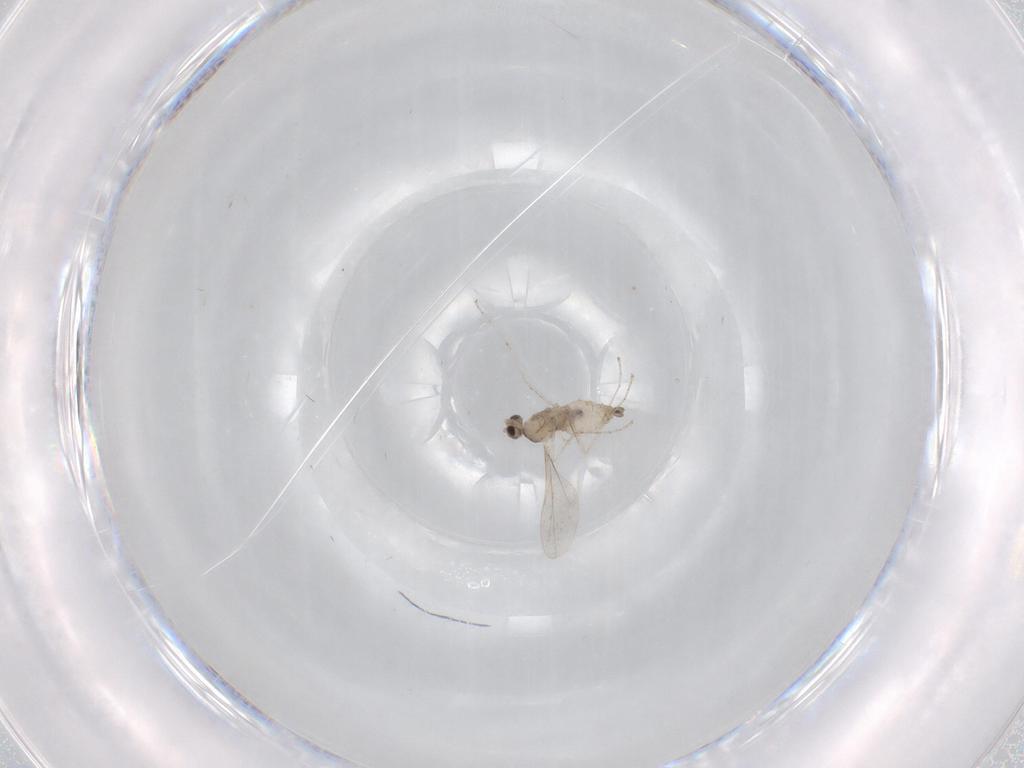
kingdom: Animalia
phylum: Arthropoda
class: Insecta
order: Diptera
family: Cecidomyiidae
